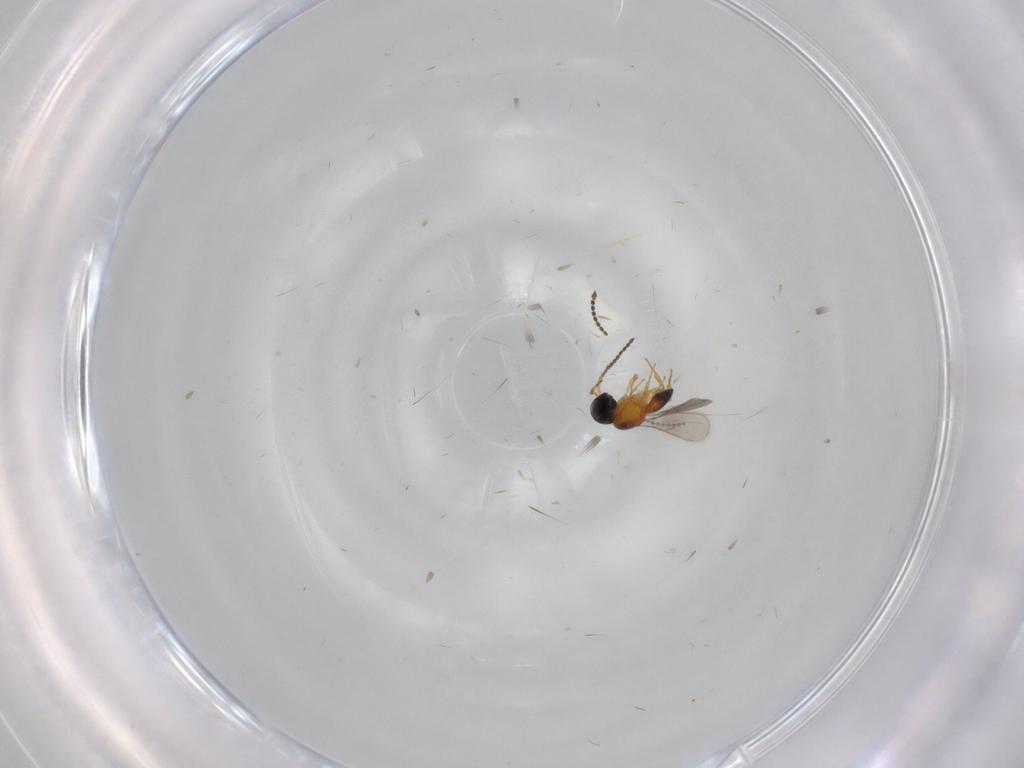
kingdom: Animalia
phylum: Arthropoda
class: Insecta
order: Hymenoptera
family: Scelionidae
